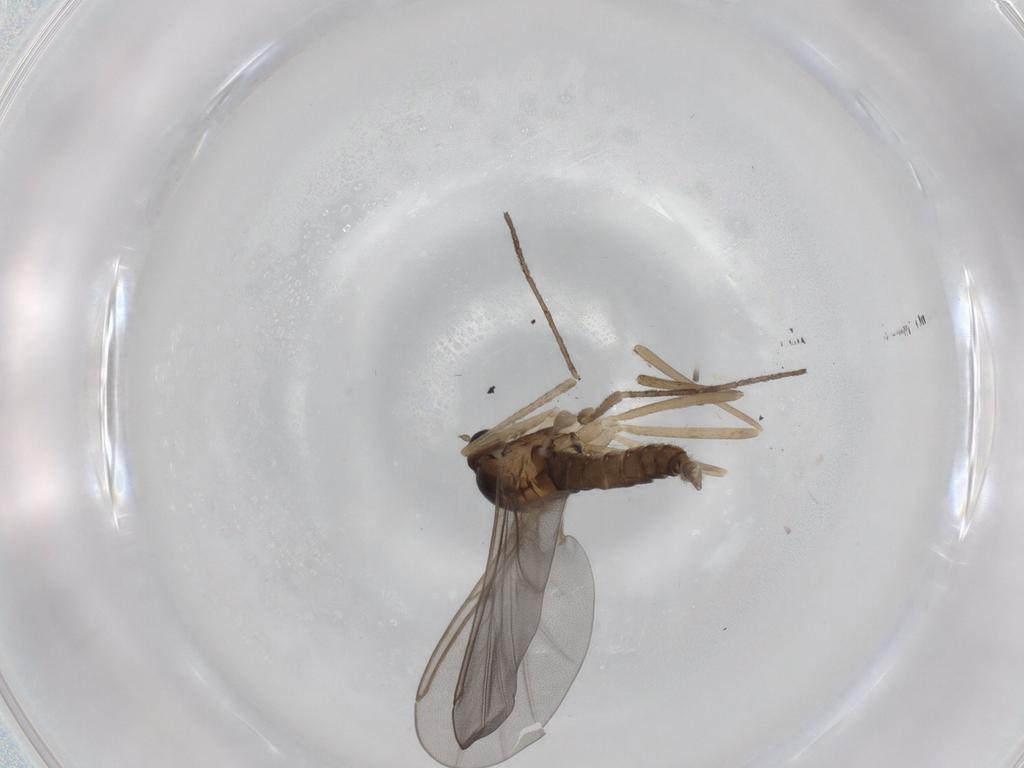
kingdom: Animalia
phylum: Arthropoda
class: Insecta
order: Diptera
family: Cecidomyiidae
